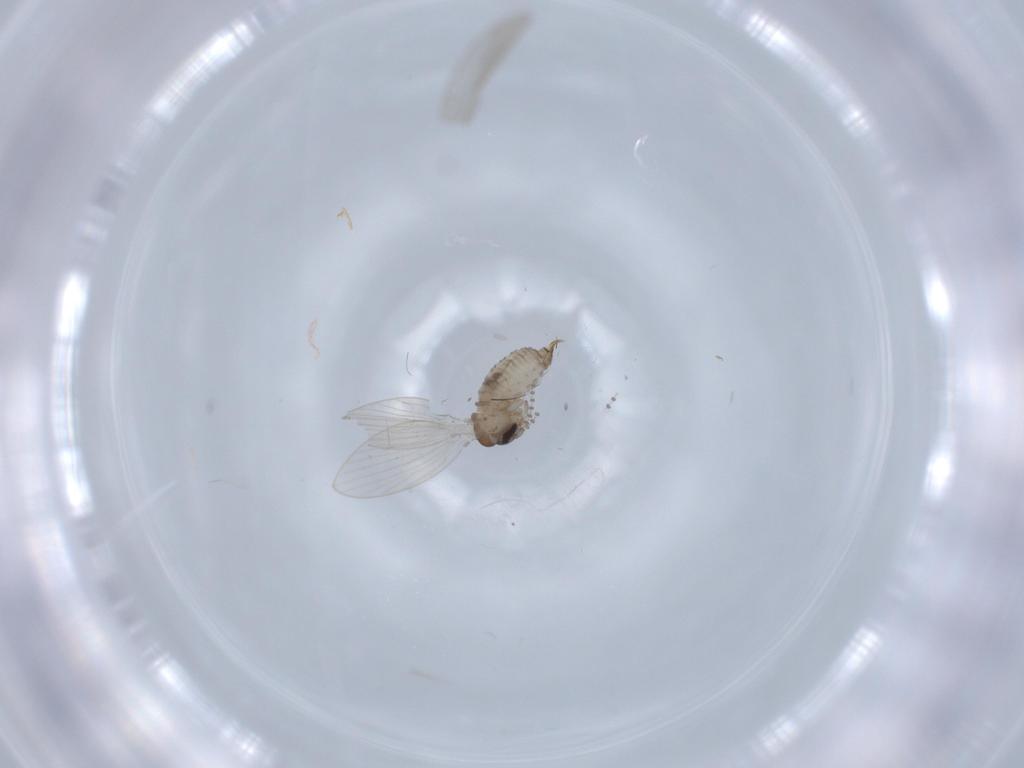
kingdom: Animalia
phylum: Arthropoda
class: Insecta
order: Diptera
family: Psychodidae
